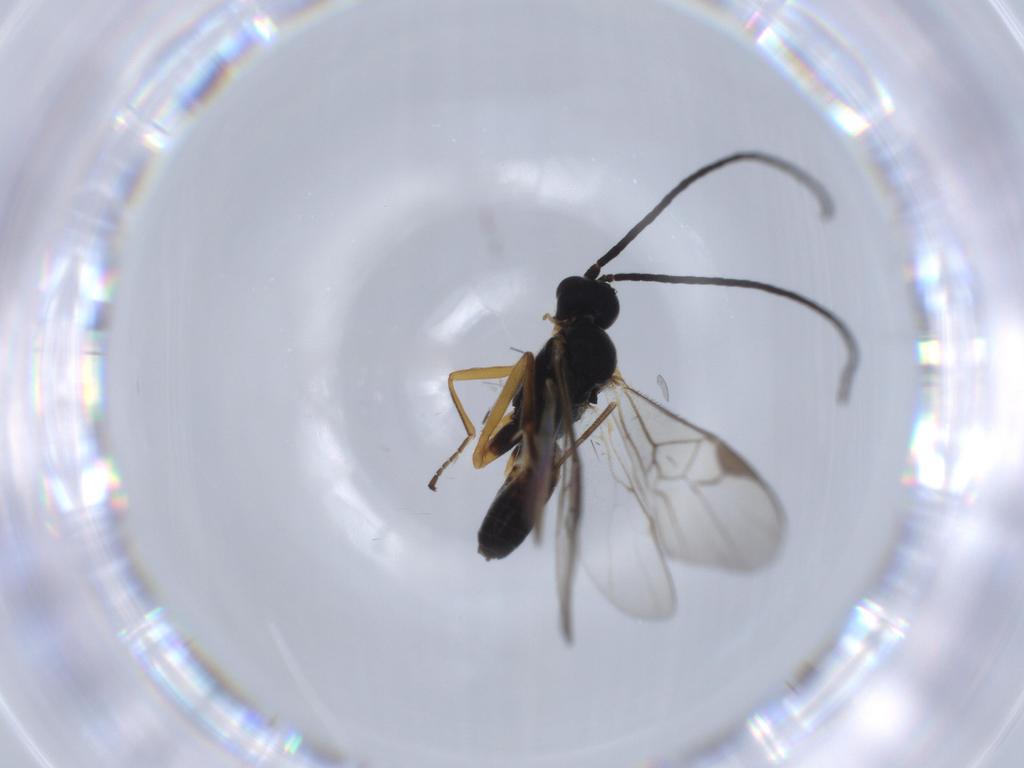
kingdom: Animalia
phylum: Arthropoda
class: Insecta
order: Hymenoptera
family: Braconidae
